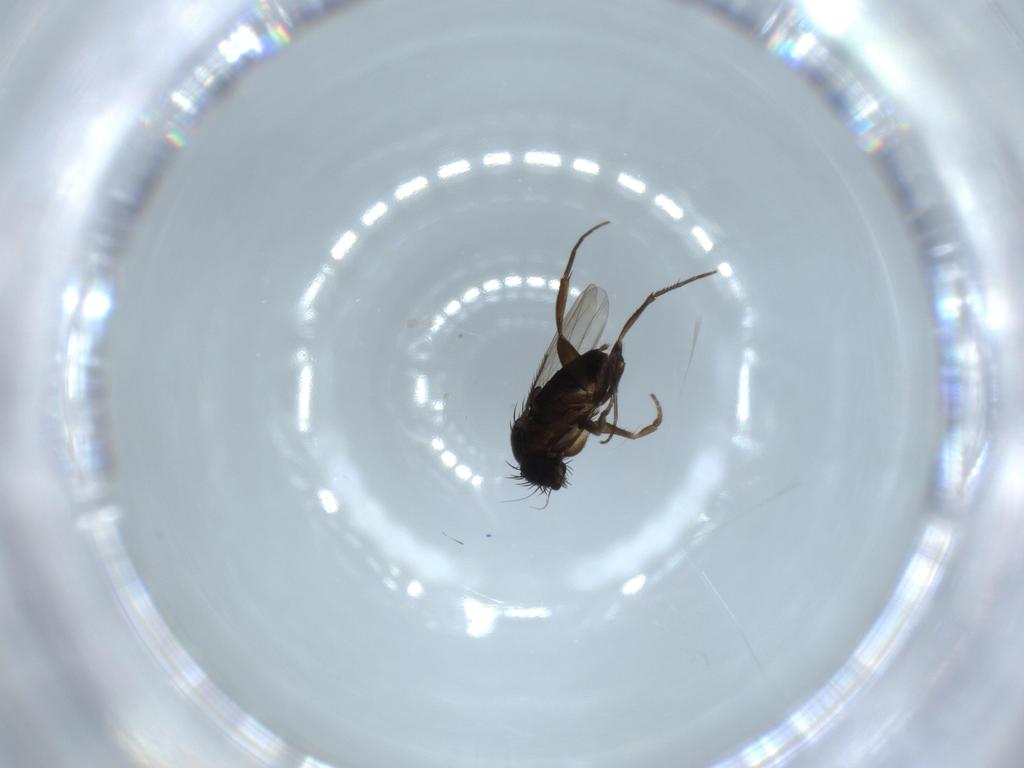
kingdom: Animalia
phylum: Arthropoda
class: Insecta
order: Diptera
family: Phoridae
